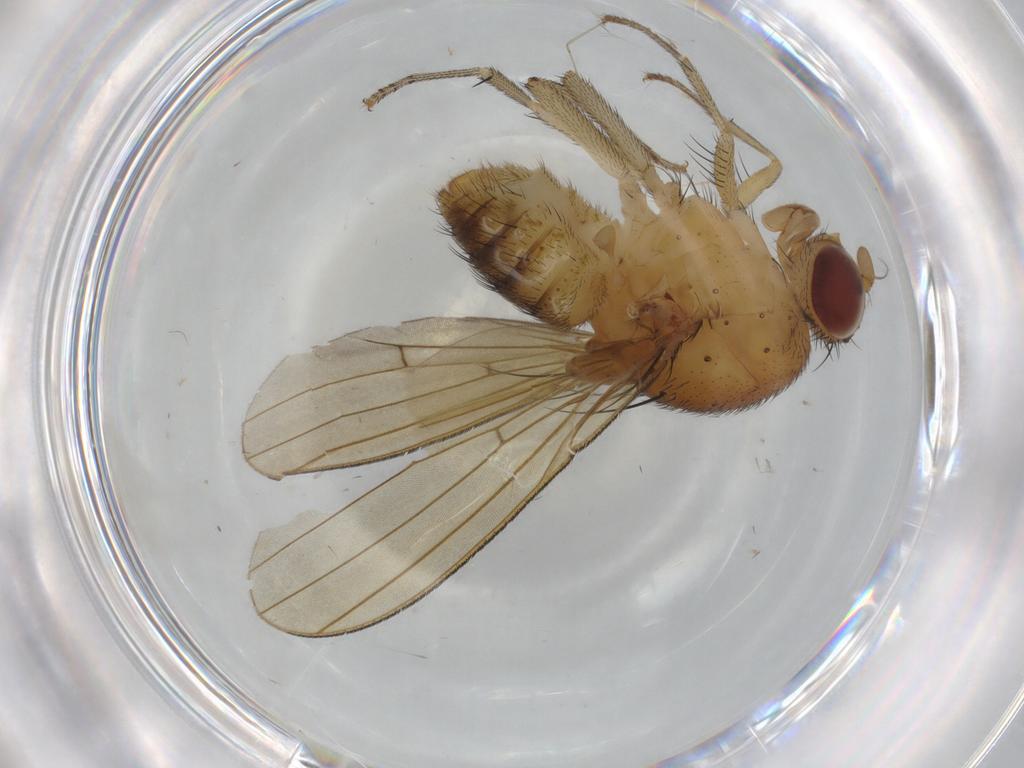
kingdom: Animalia
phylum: Arthropoda
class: Insecta
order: Diptera
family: Cecidomyiidae
